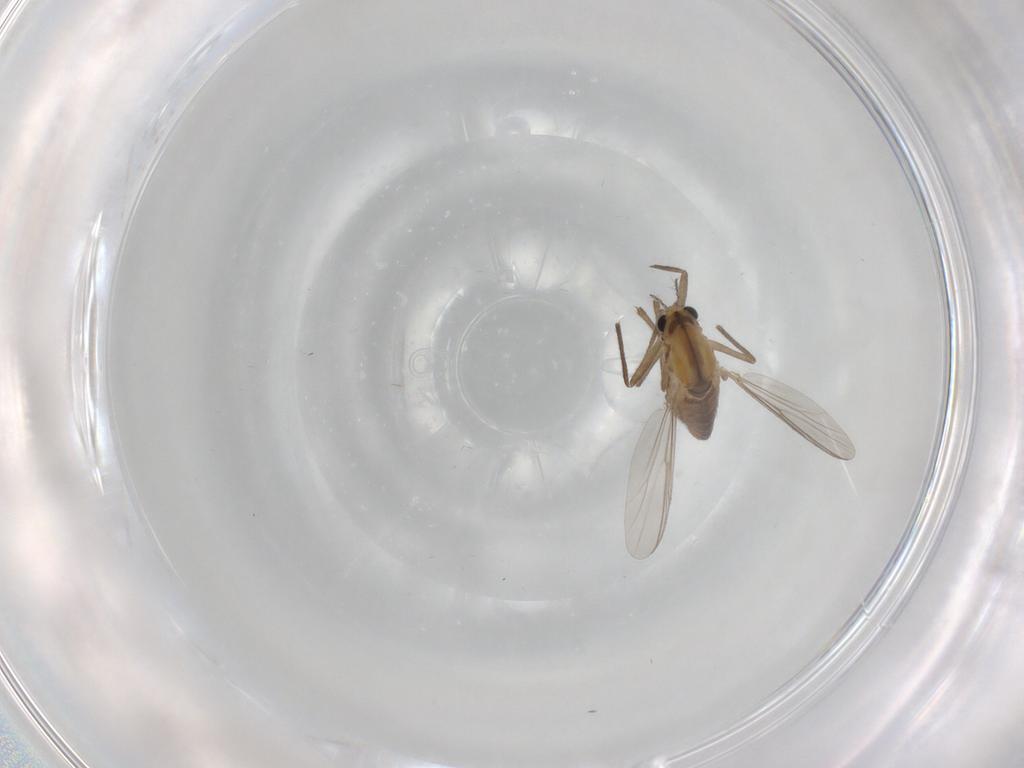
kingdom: Animalia
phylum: Arthropoda
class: Insecta
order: Diptera
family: Chironomidae
